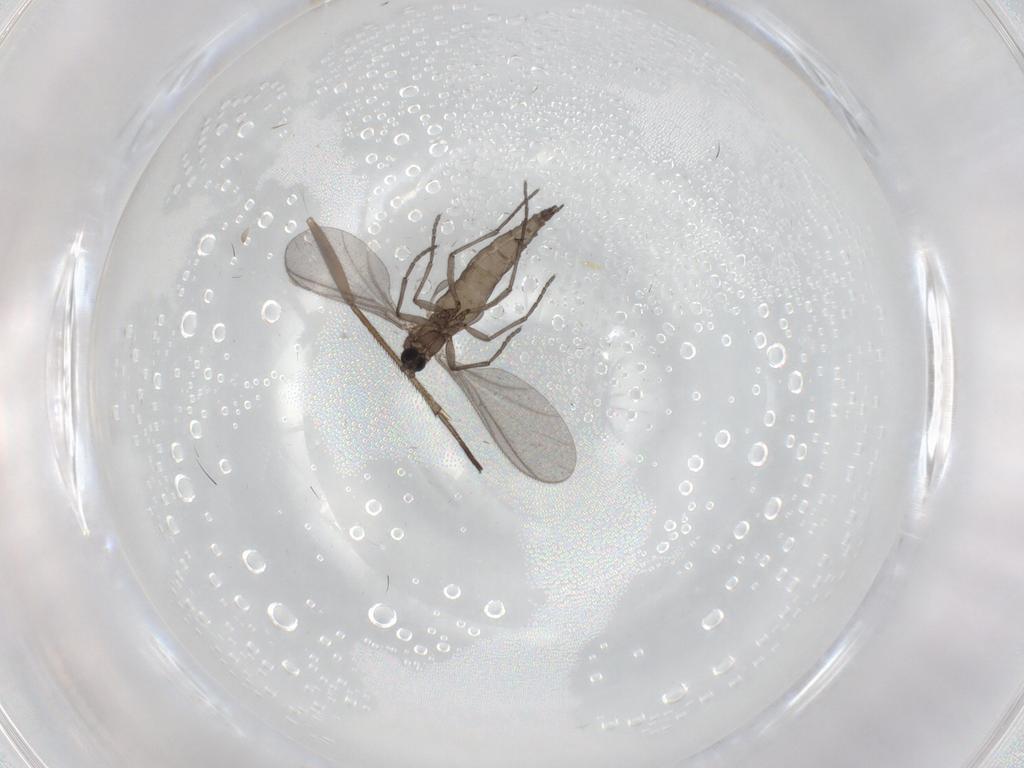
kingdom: Animalia
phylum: Arthropoda
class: Insecta
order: Diptera
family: Sciaridae
